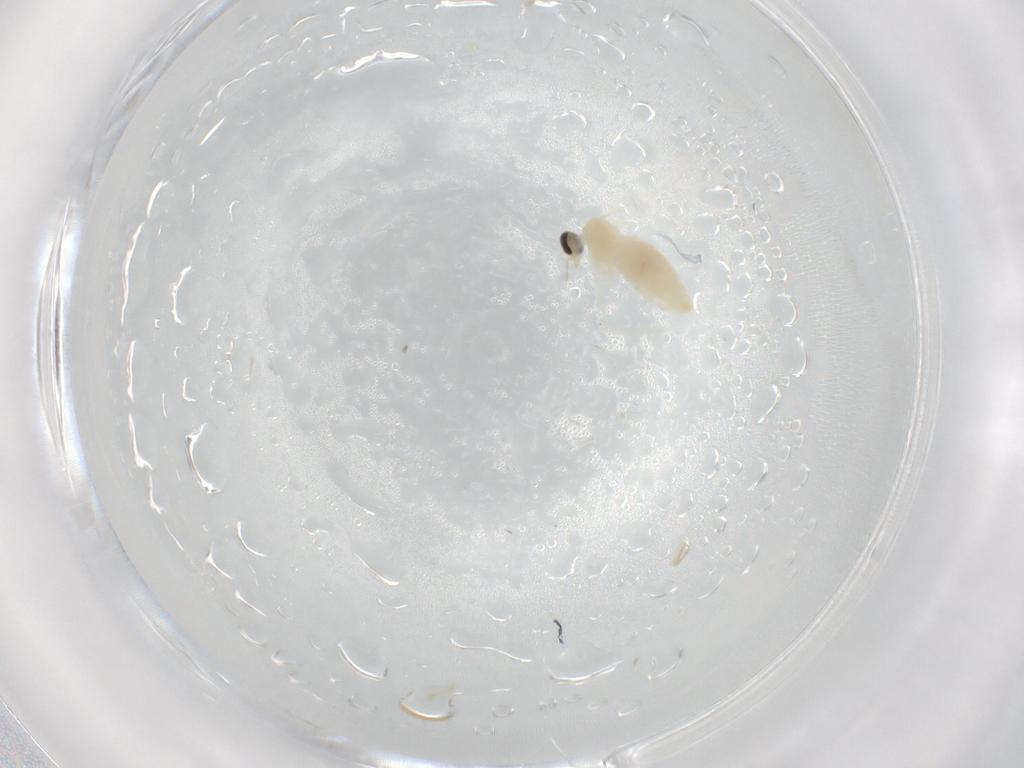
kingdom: Animalia
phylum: Arthropoda
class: Insecta
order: Diptera
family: Cecidomyiidae
